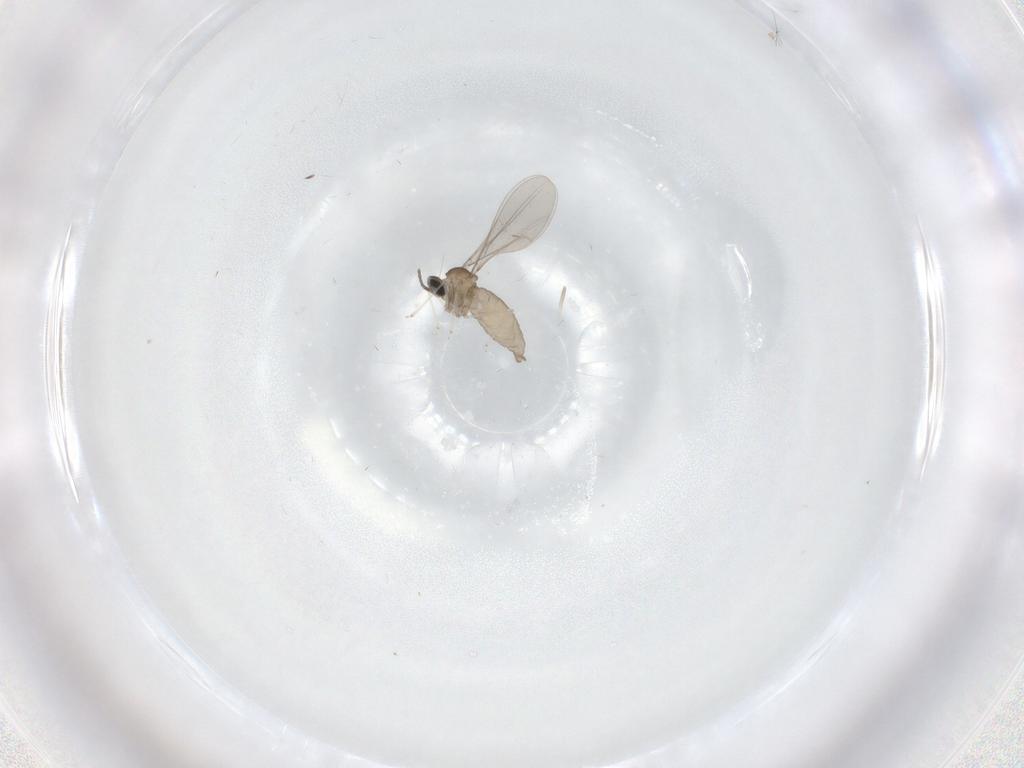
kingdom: Animalia
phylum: Arthropoda
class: Insecta
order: Diptera
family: Cecidomyiidae
